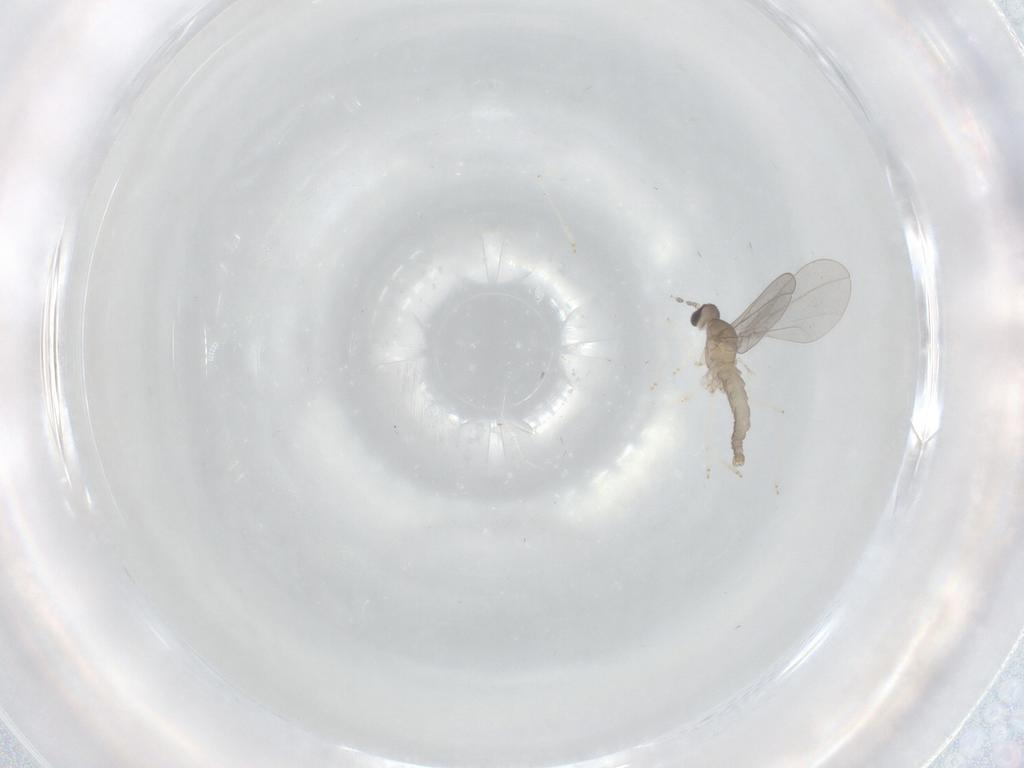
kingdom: Animalia
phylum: Arthropoda
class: Insecta
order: Diptera
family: Cecidomyiidae
